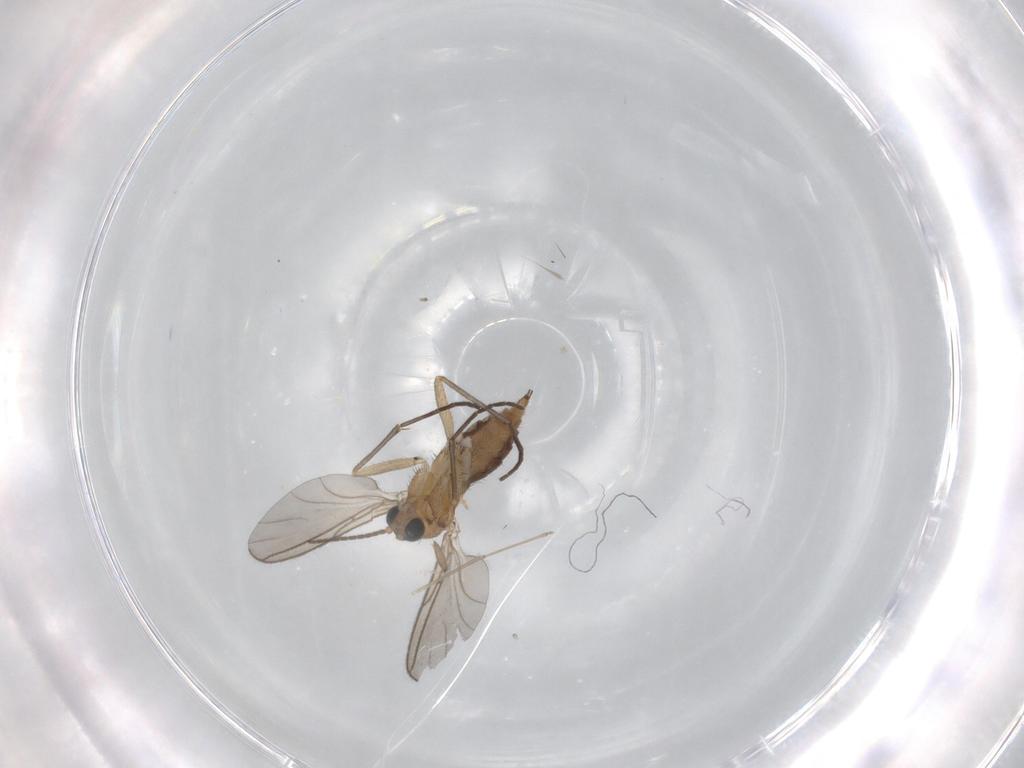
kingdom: Animalia
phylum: Arthropoda
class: Insecta
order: Diptera
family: Sciaridae
